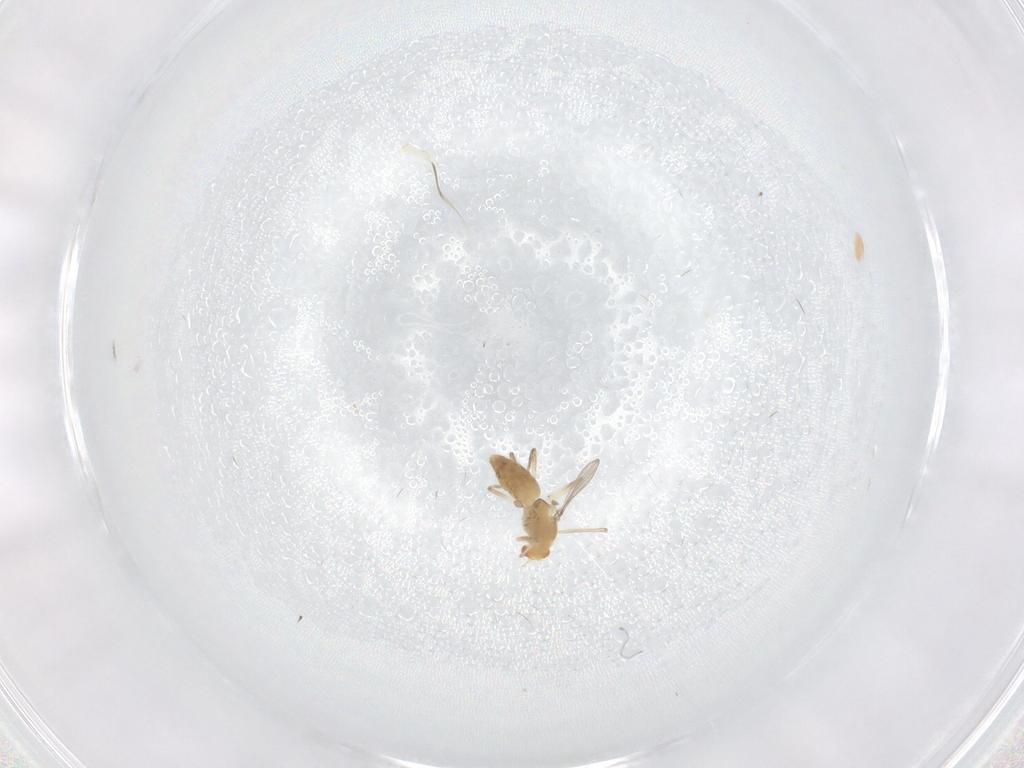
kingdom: Animalia
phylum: Arthropoda
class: Insecta
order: Diptera
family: Chironomidae
